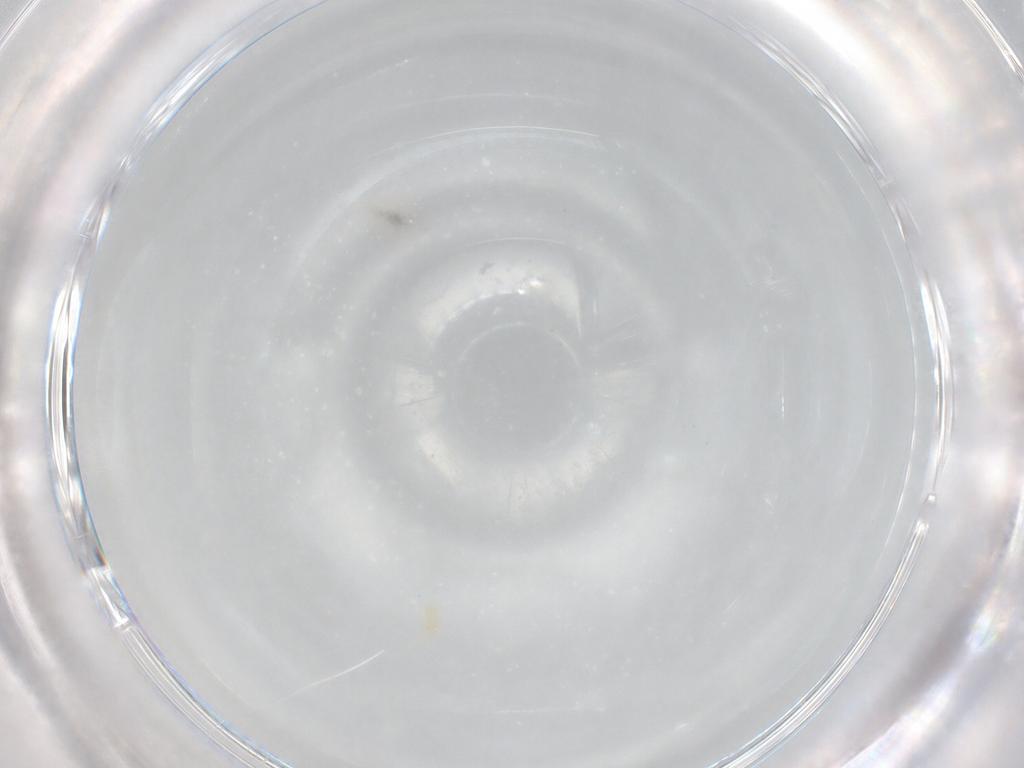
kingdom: Animalia
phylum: Arthropoda
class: Arachnida
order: Trombidiformes
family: Eupodidae
